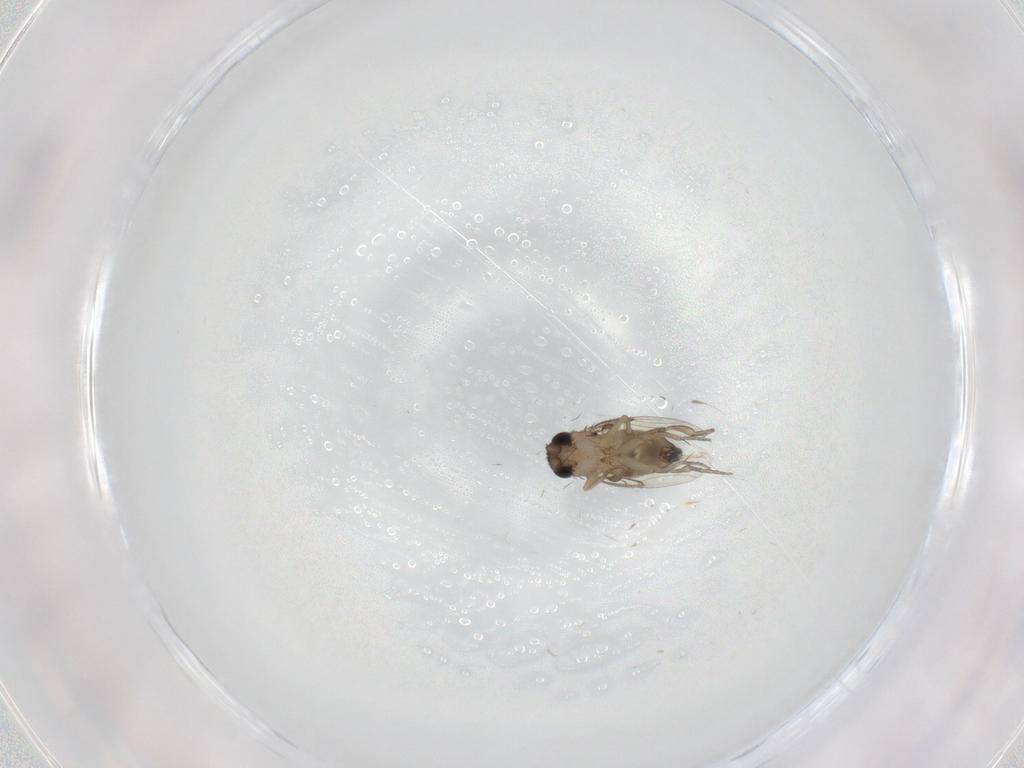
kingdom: Animalia
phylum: Arthropoda
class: Insecta
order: Diptera
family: Phoridae
